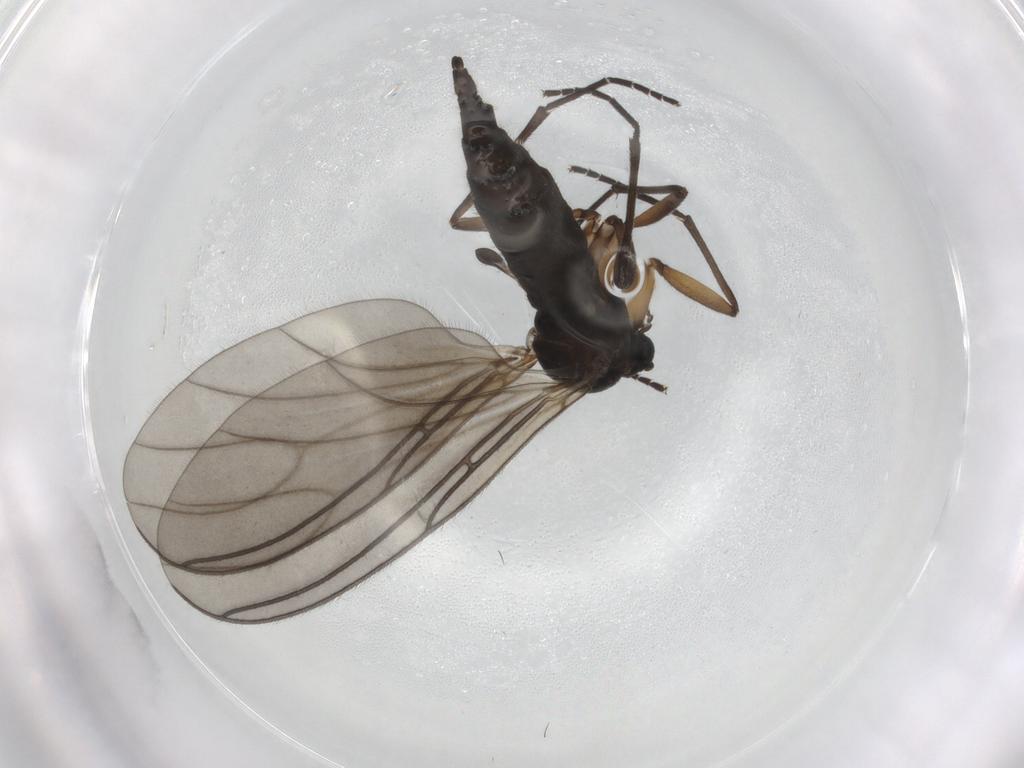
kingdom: Animalia
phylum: Arthropoda
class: Insecta
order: Diptera
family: Sciaridae
